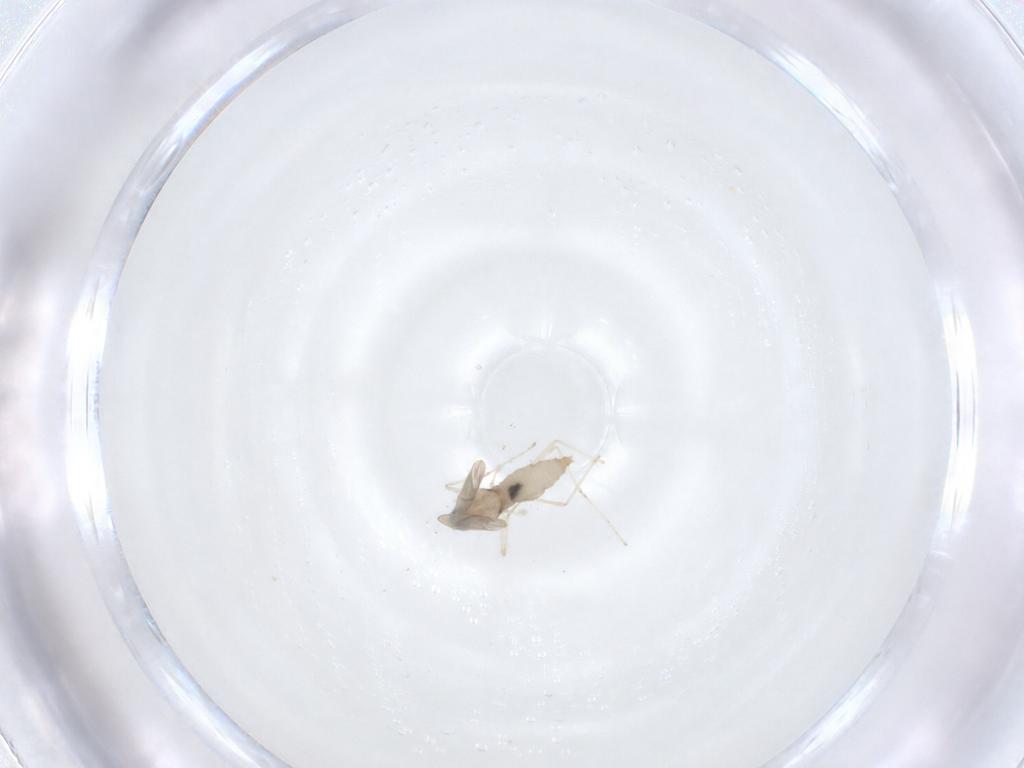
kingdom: Animalia
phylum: Arthropoda
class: Insecta
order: Diptera
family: Cecidomyiidae
